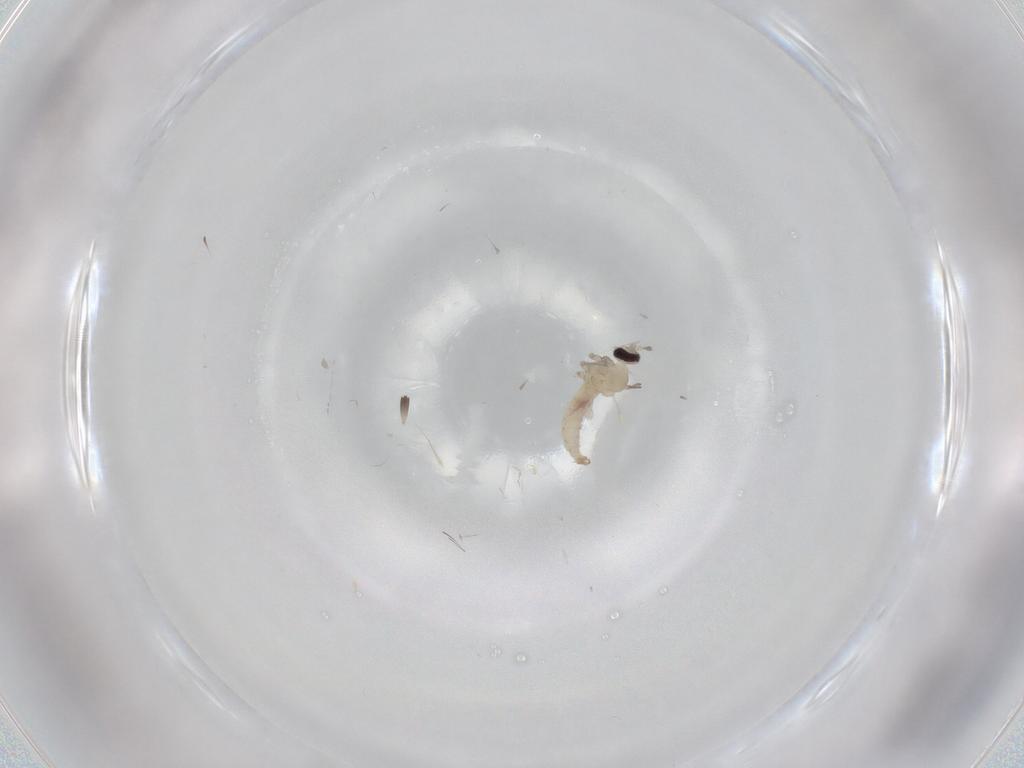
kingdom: Animalia
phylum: Arthropoda
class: Insecta
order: Diptera
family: Cecidomyiidae
